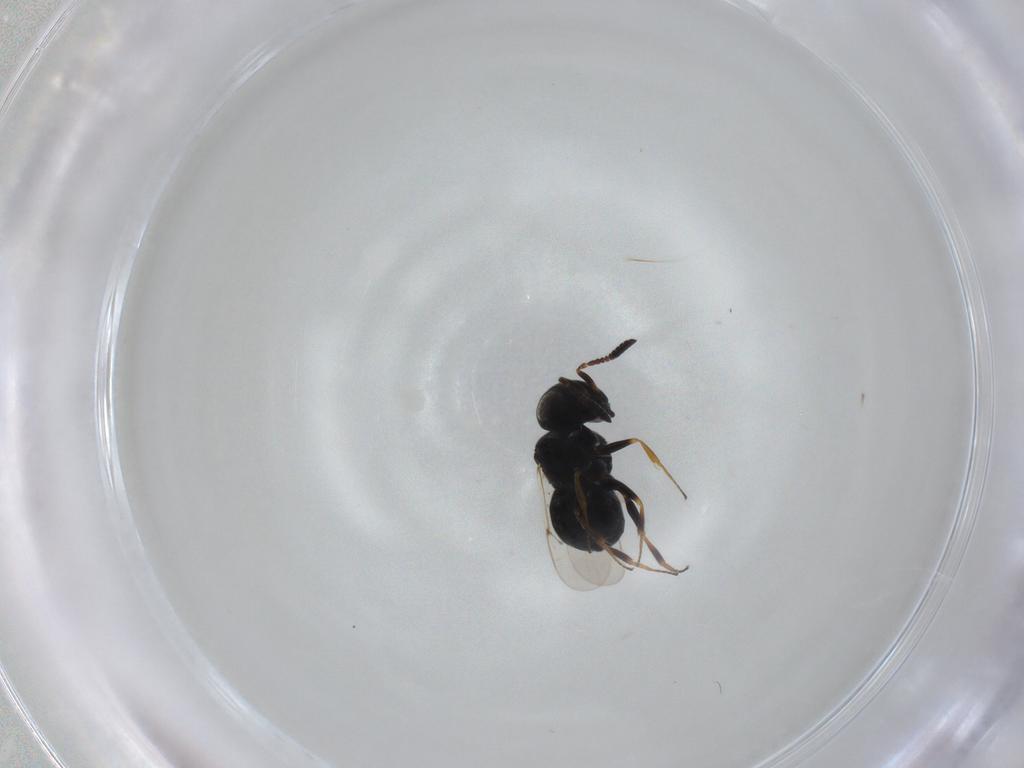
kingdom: Animalia
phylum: Arthropoda
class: Insecta
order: Hymenoptera
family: Scelionidae
